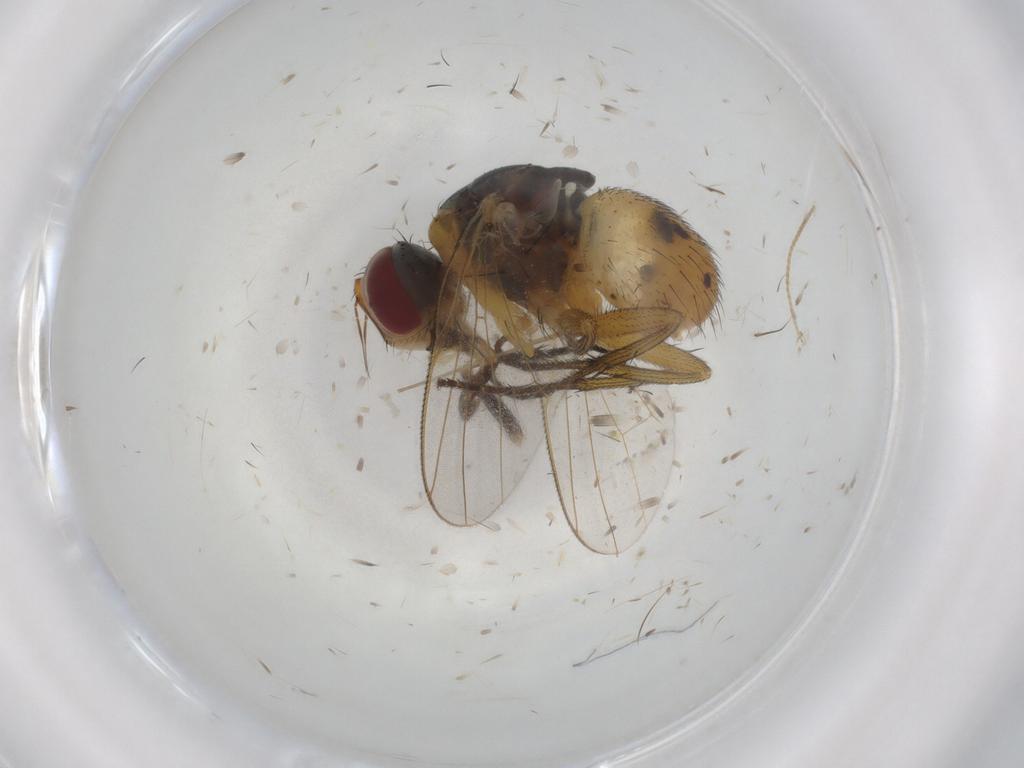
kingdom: Animalia
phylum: Arthropoda
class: Insecta
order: Diptera
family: Muscidae
